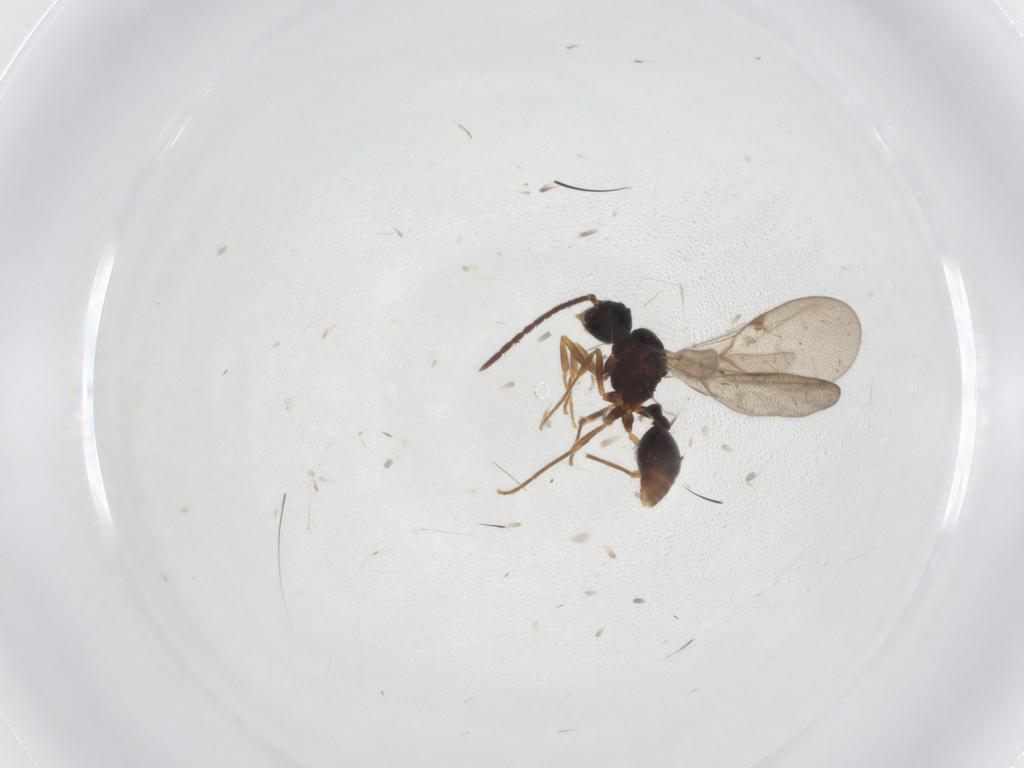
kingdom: Animalia
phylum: Arthropoda
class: Insecta
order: Hymenoptera
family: Formicidae
